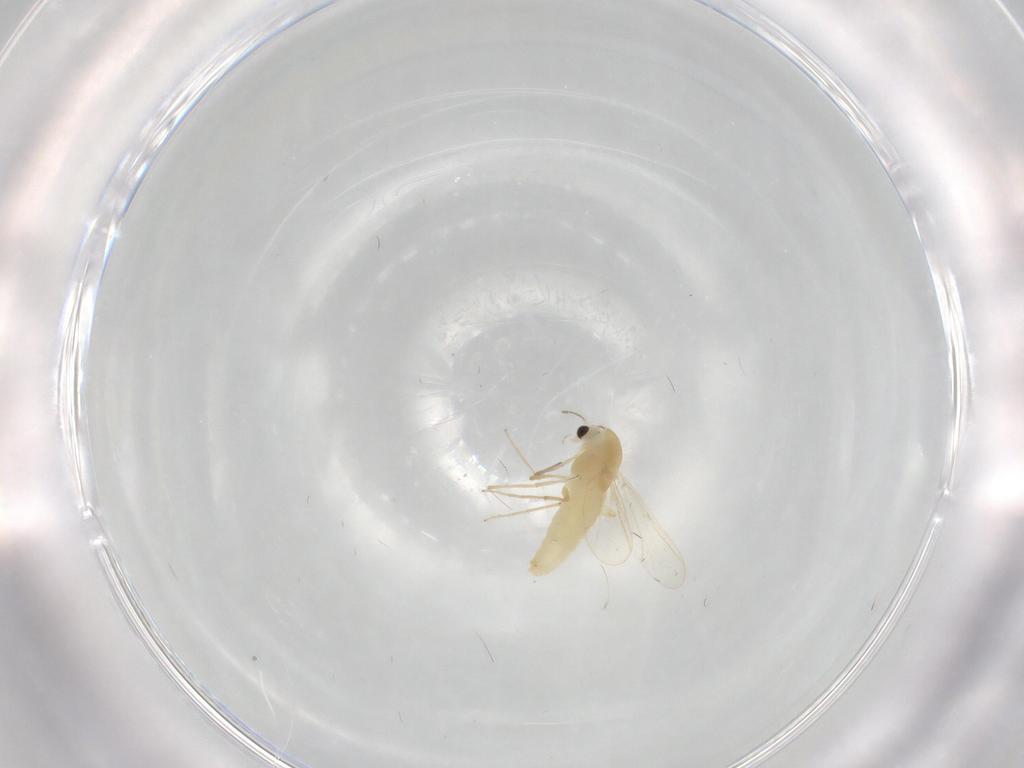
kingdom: Animalia
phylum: Arthropoda
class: Insecta
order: Diptera
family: Chironomidae
